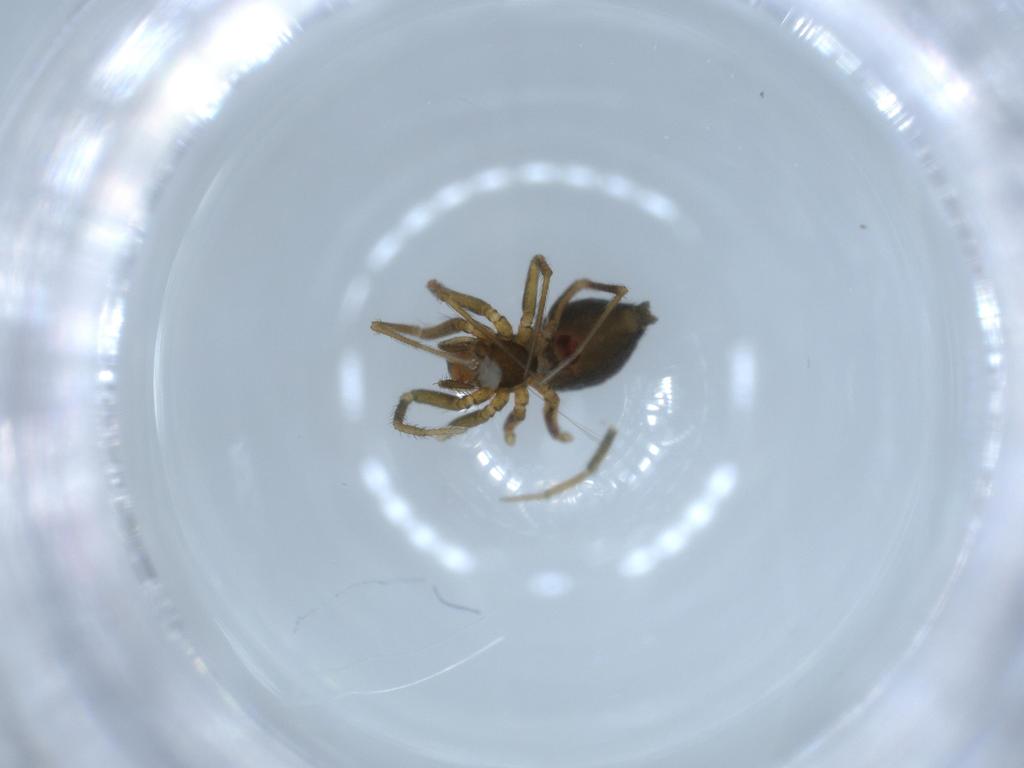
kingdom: Animalia
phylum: Arthropoda
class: Arachnida
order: Araneae
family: Linyphiidae
